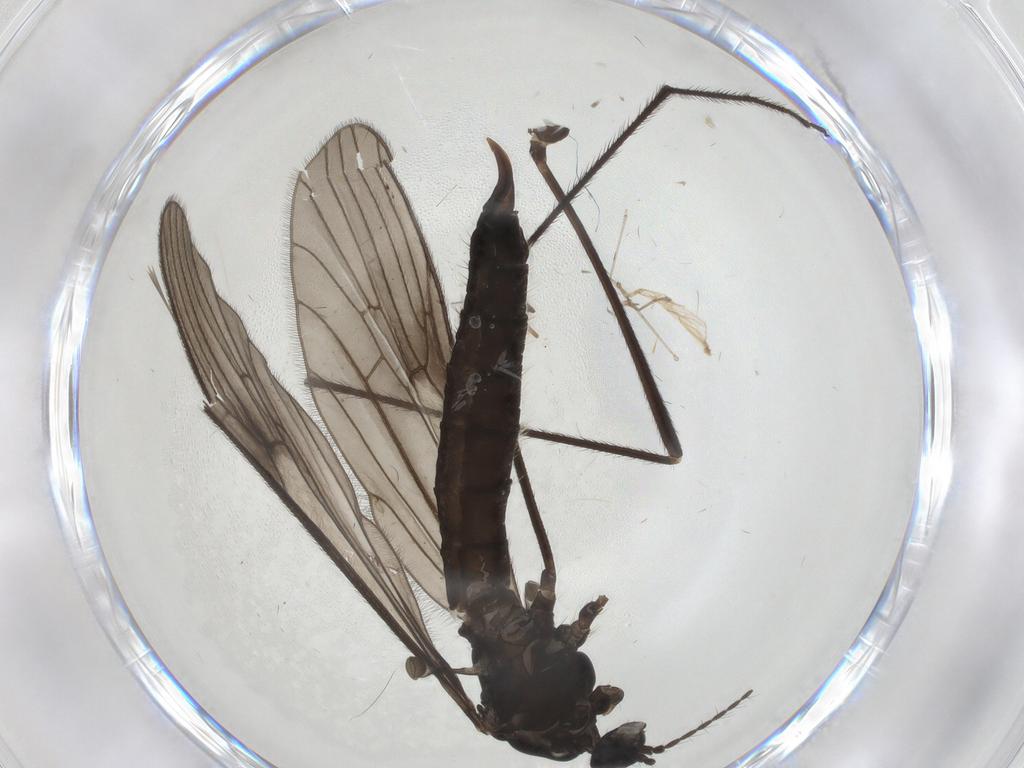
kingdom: Animalia
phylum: Arthropoda
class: Insecta
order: Diptera
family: Limoniidae
